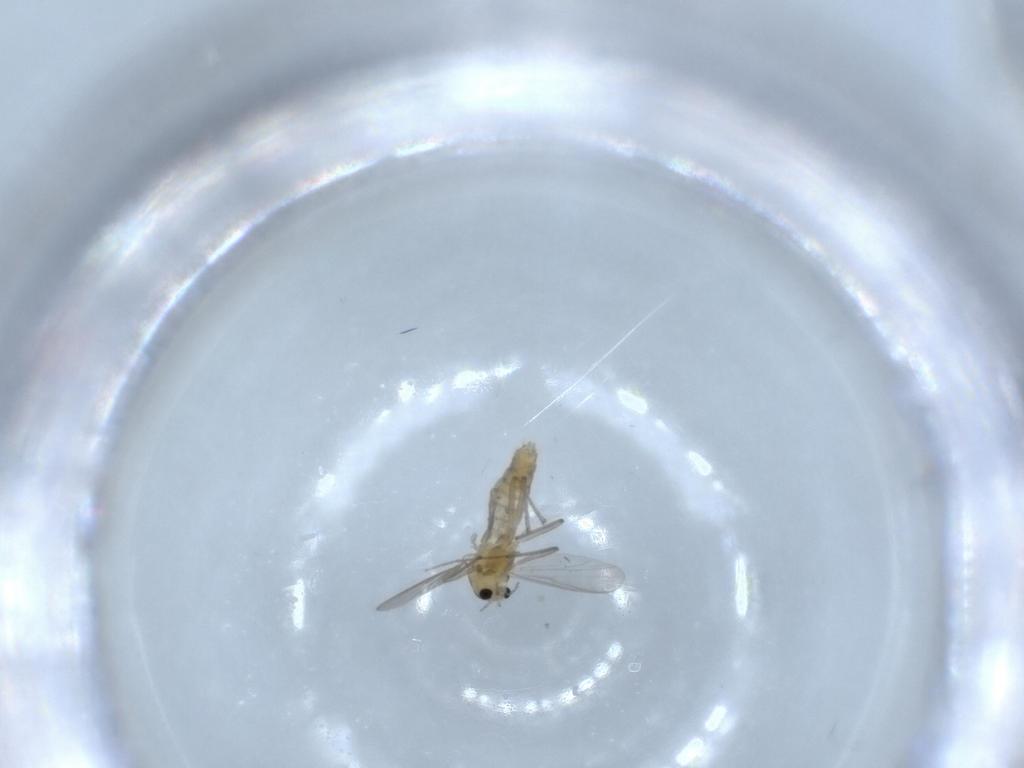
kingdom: Animalia
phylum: Arthropoda
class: Insecta
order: Diptera
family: Chironomidae
